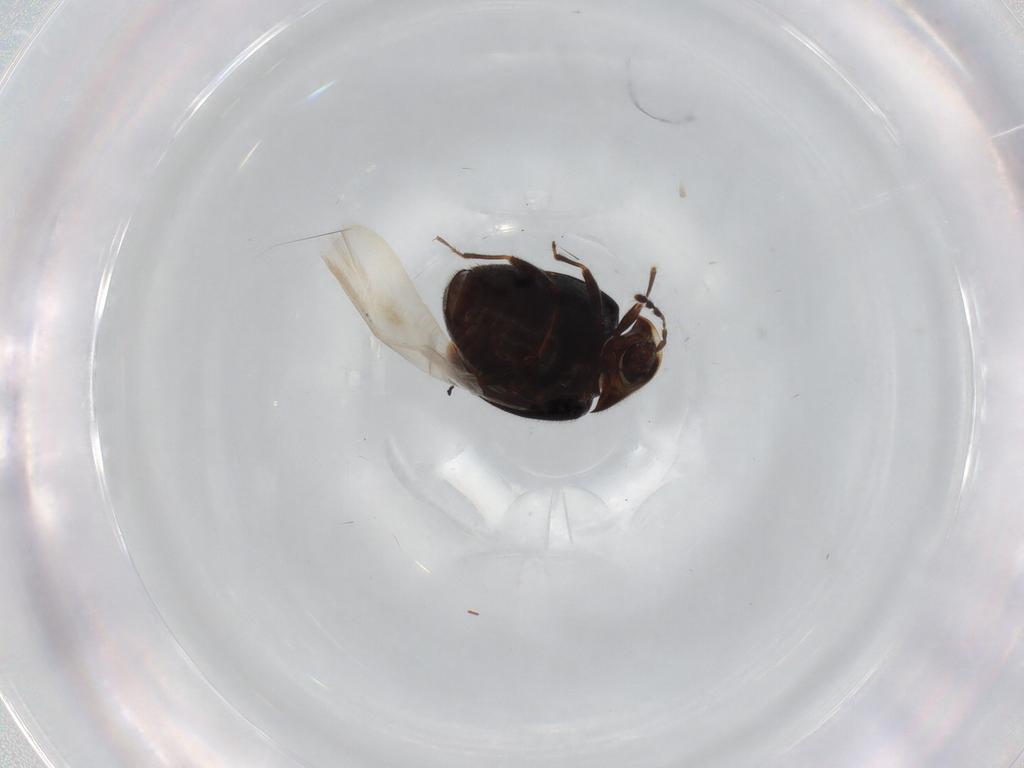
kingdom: Animalia
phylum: Arthropoda
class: Insecta
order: Coleoptera
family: Corylophidae
